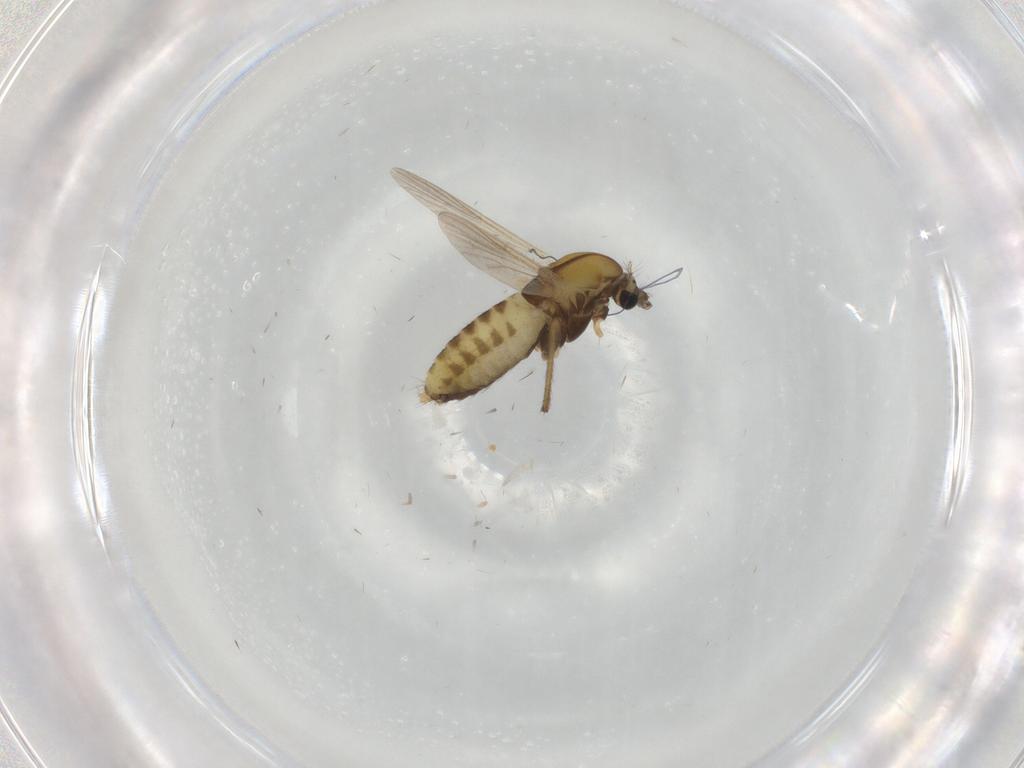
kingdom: Animalia
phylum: Arthropoda
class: Insecta
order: Diptera
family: Chironomidae
